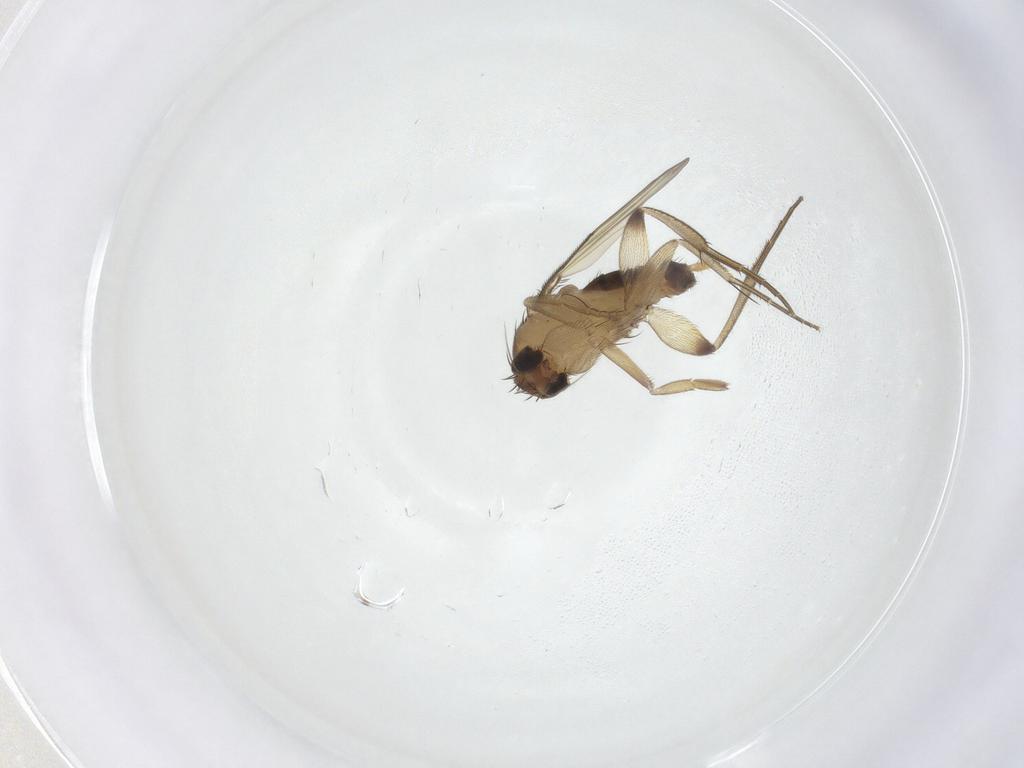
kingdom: Animalia
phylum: Arthropoda
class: Insecta
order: Diptera
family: Phoridae
